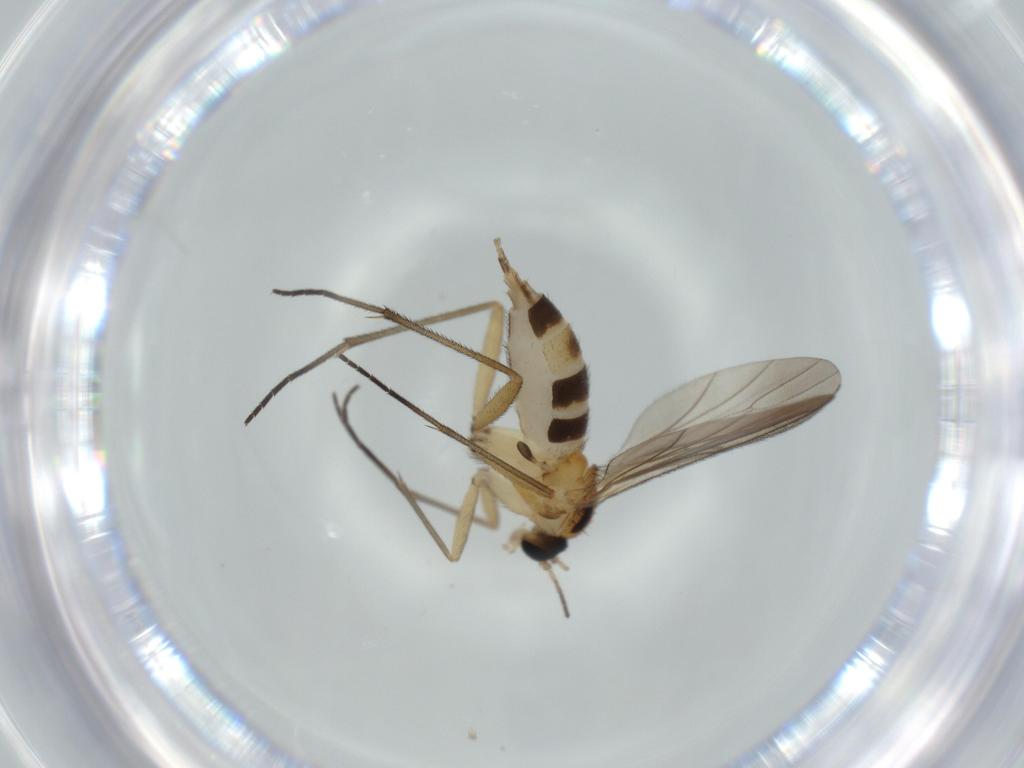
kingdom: Animalia
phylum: Arthropoda
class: Insecta
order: Diptera
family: Cecidomyiidae
